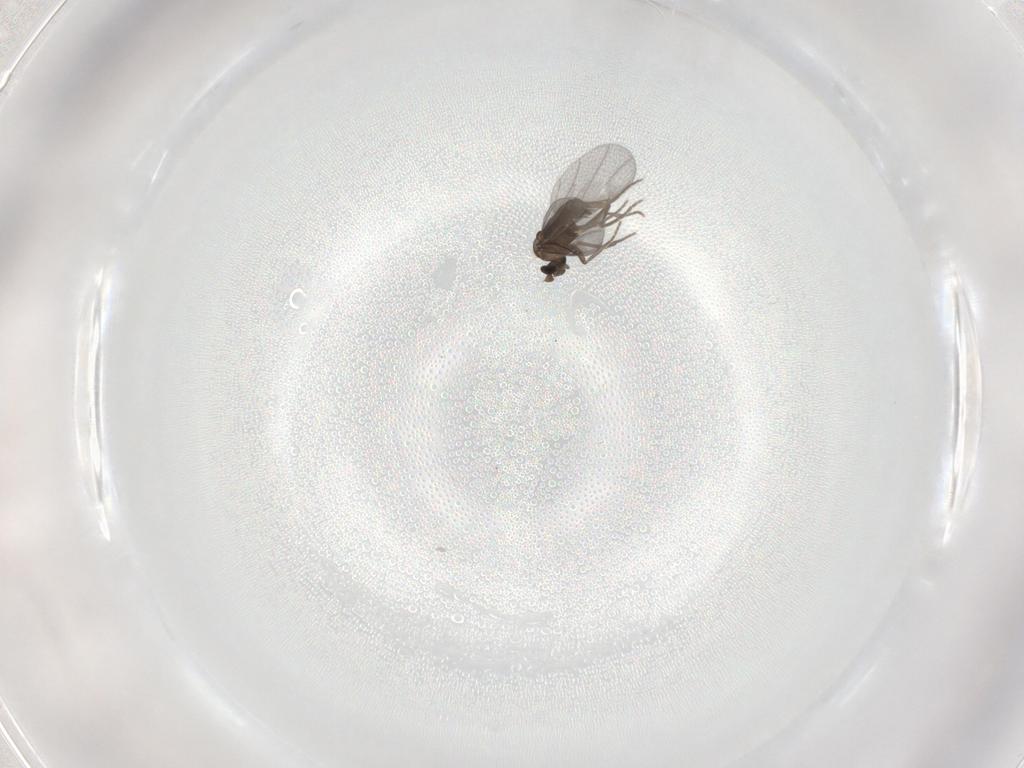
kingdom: Animalia
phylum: Arthropoda
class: Insecta
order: Diptera
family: Phoridae
